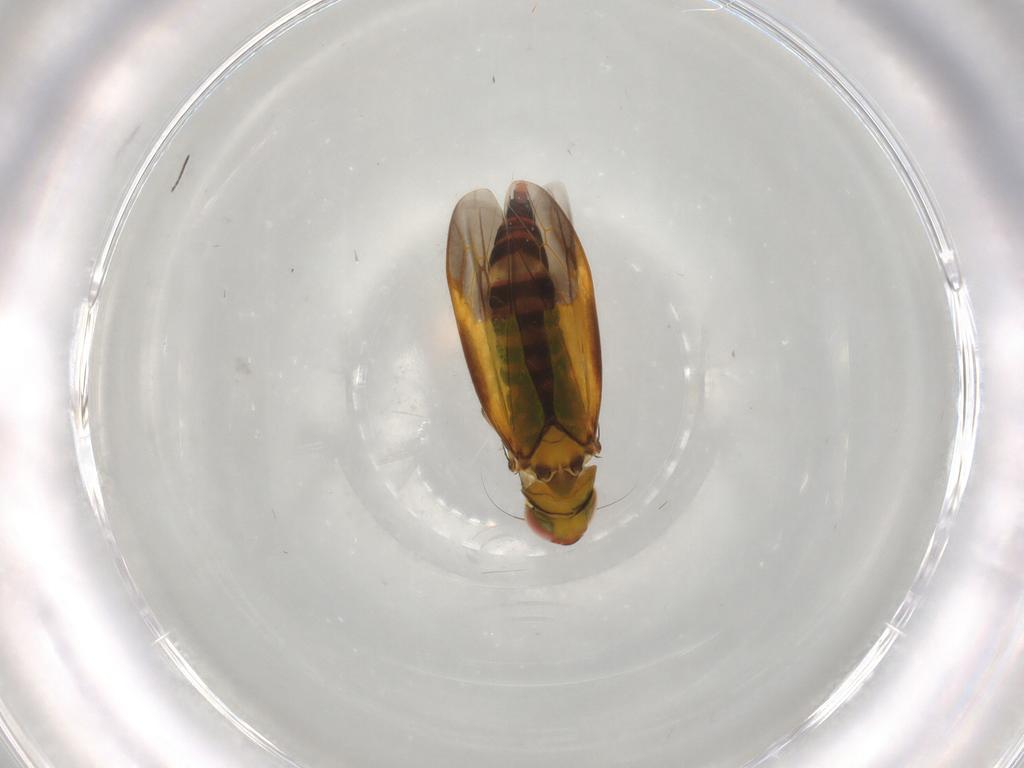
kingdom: Animalia
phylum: Arthropoda
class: Insecta
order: Hemiptera
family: Cicadellidae
